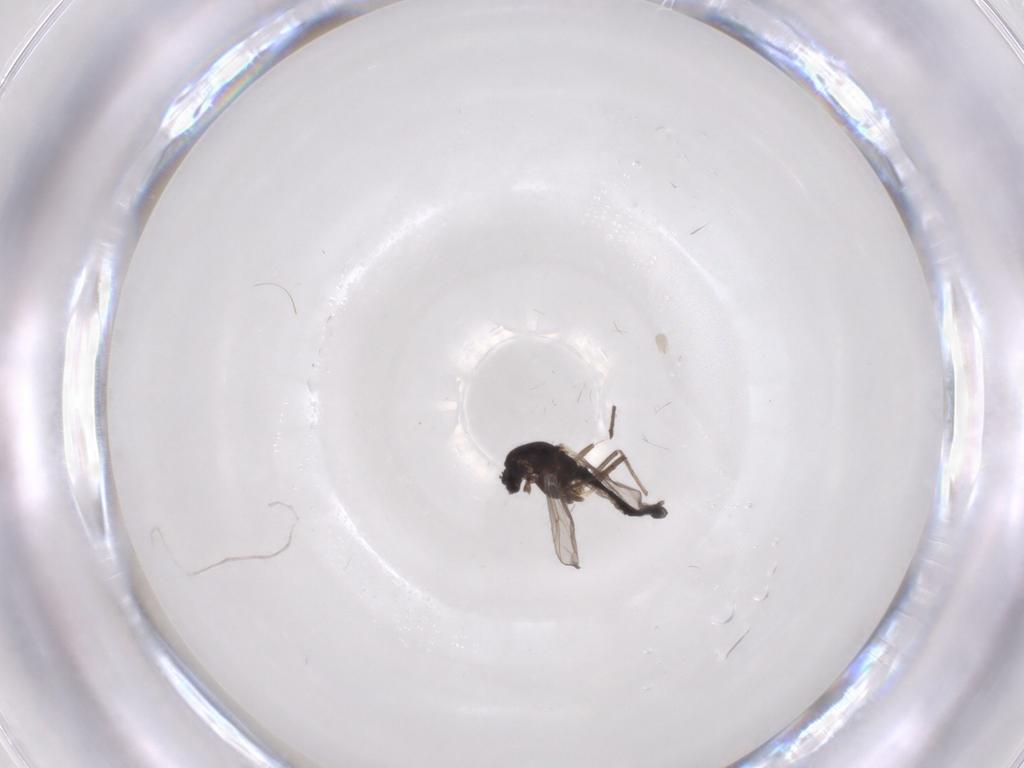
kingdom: Animalia
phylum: Arthropoda
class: Insecta
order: Diptera
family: Chironomidae
